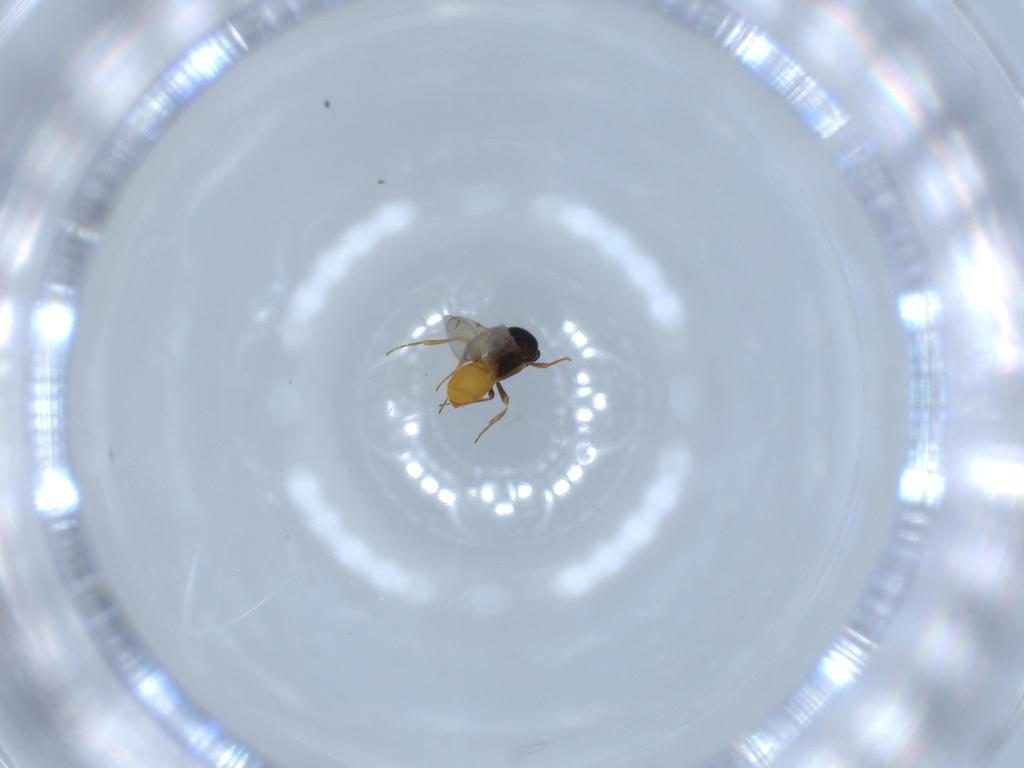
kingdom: Animalia
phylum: Arthropoda
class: Insecta
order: Hymenoptera
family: Scelionidae
